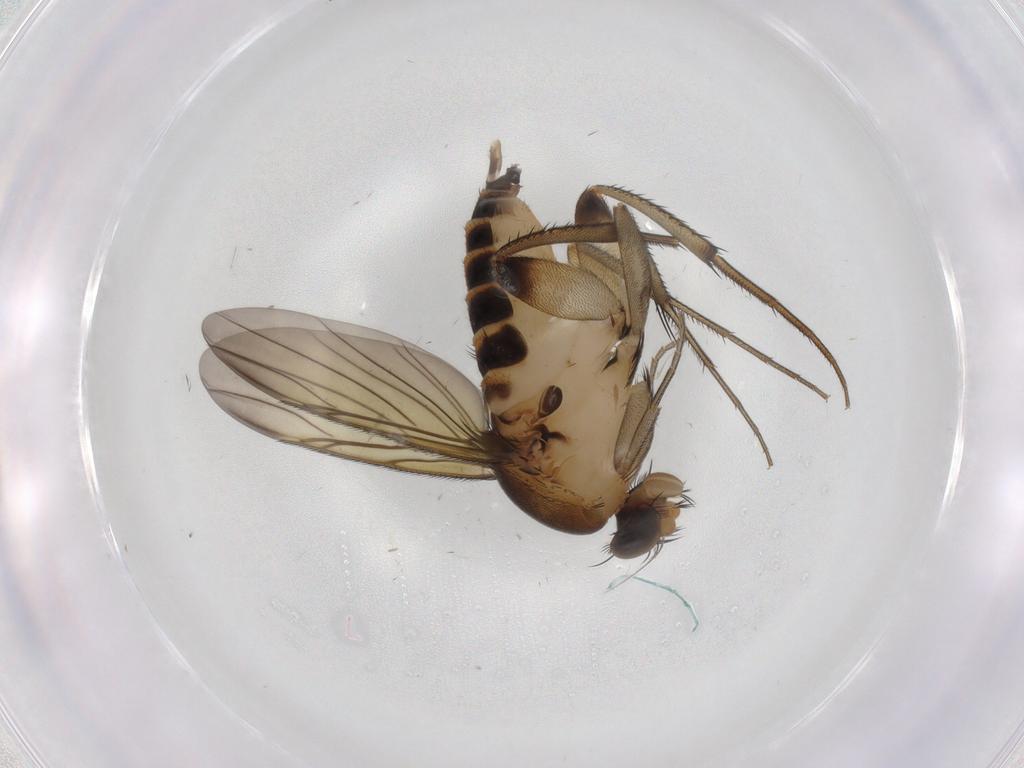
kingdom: Animalia
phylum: Arthropoda
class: Insecta
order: Diptera
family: Phoridae
